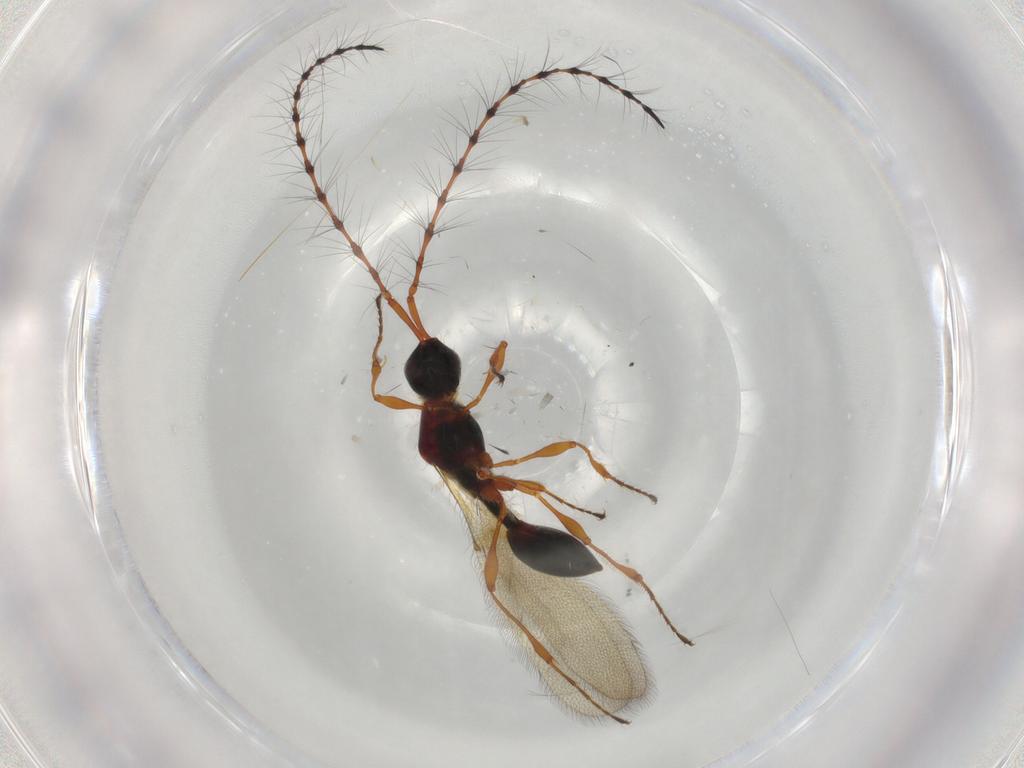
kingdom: Animalia
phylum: Arthropoda
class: Insecta
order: Hymenoptera
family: Diapriidae
